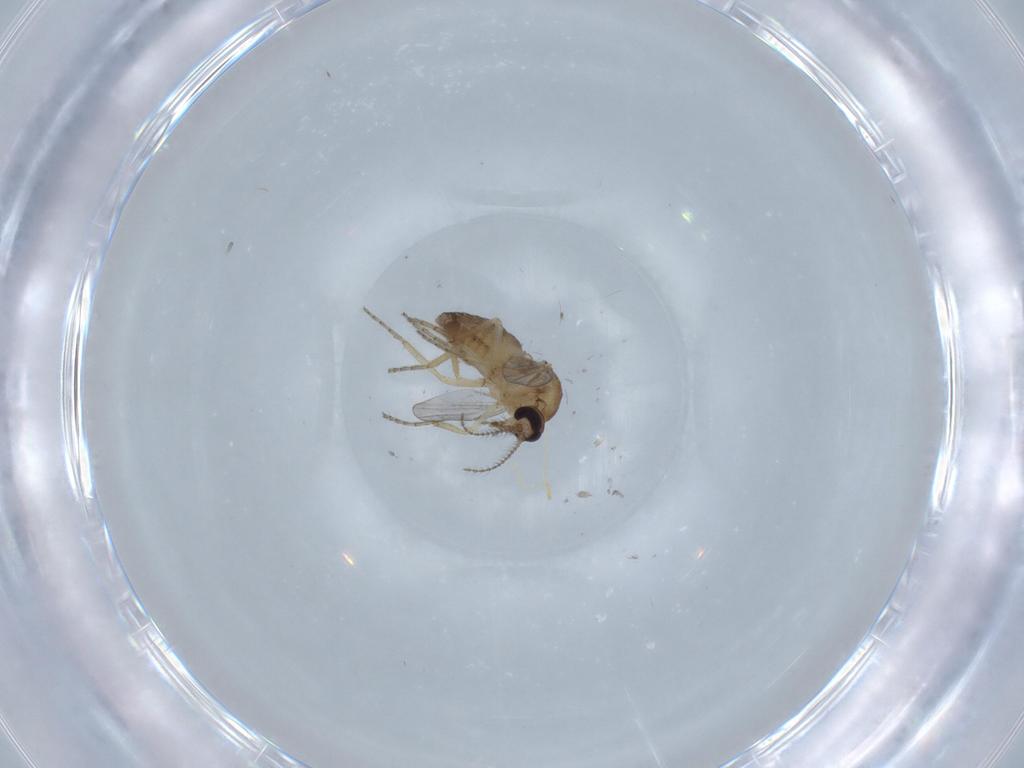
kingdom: Animalia
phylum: Arthropoda
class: Insecta
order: Diptera
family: Ceratopogonidae
